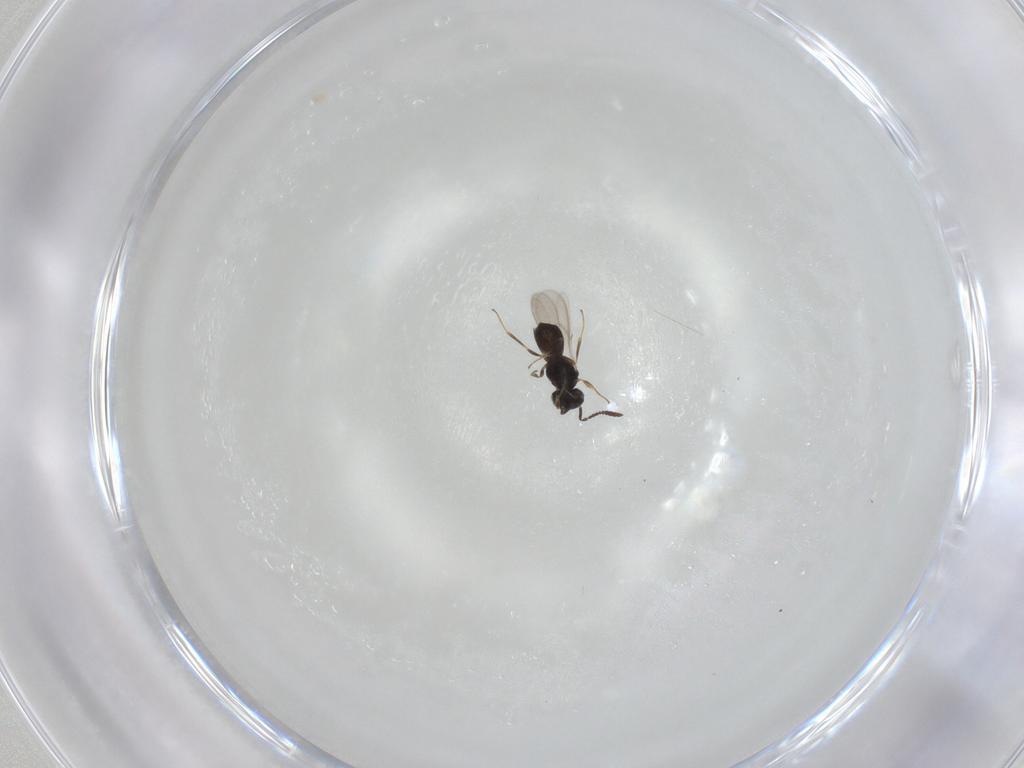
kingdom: Animalia
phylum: Arthropoda
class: Insecta
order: Hymenoptera
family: Scelionidae
